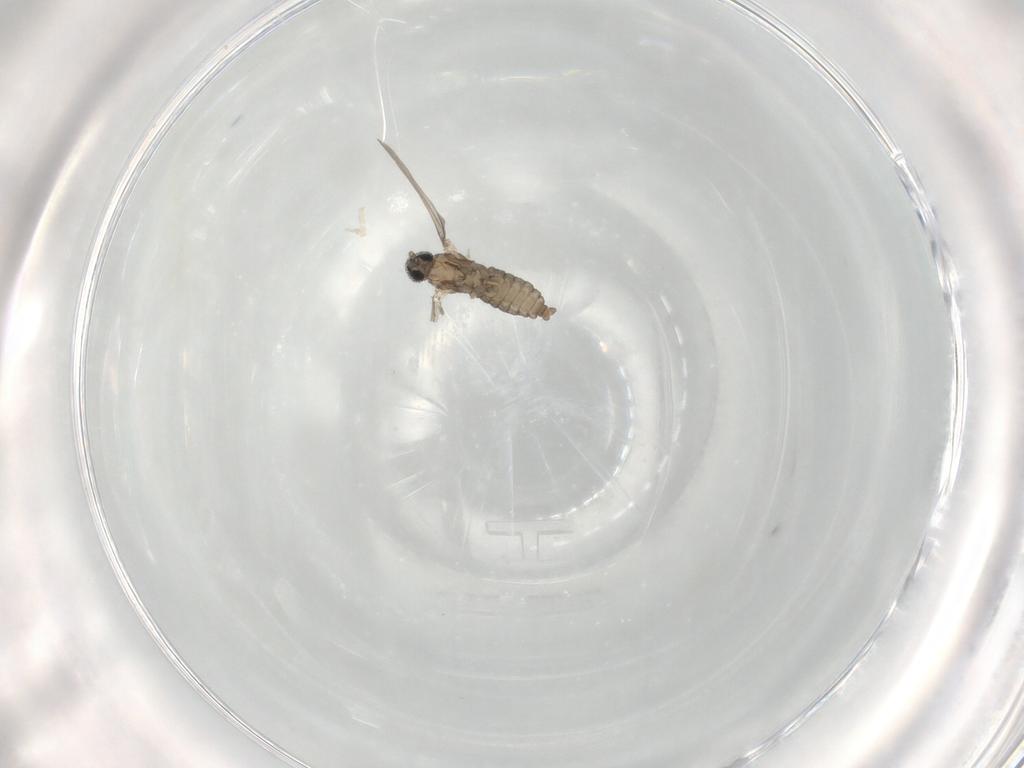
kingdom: Animalia
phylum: Arthropoda
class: Insecta
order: Diptera
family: Cecidomyiidae
